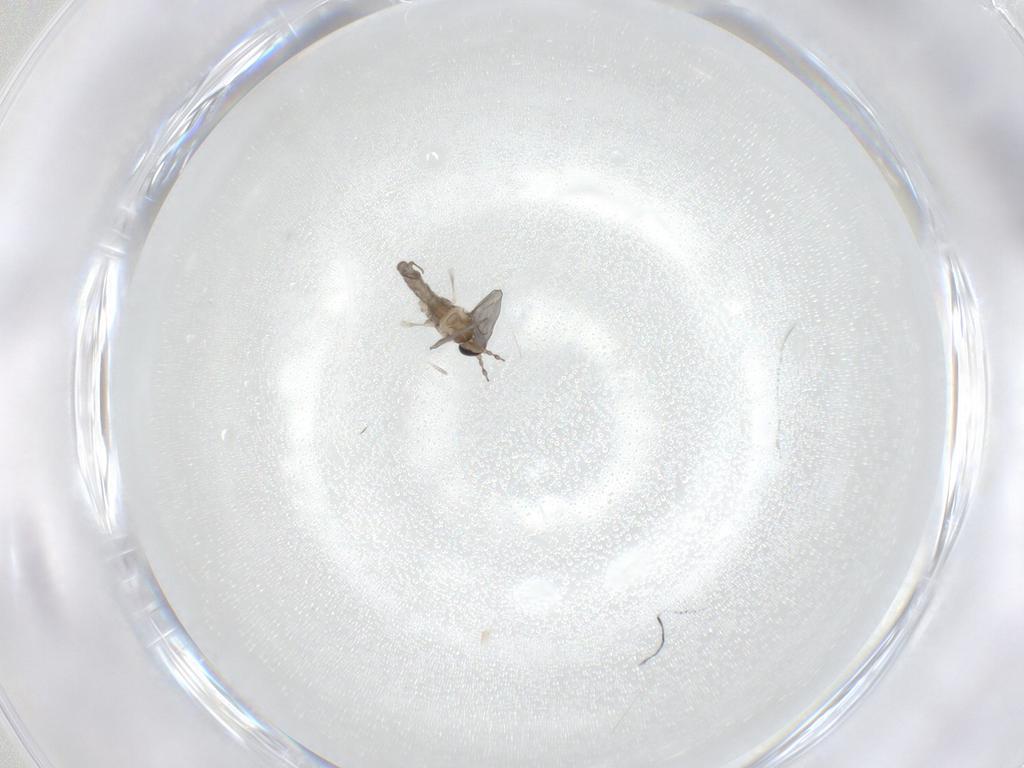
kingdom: Animalia
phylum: Arthropoda
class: Insecta
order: Diptera
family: Cecidomyiidae
